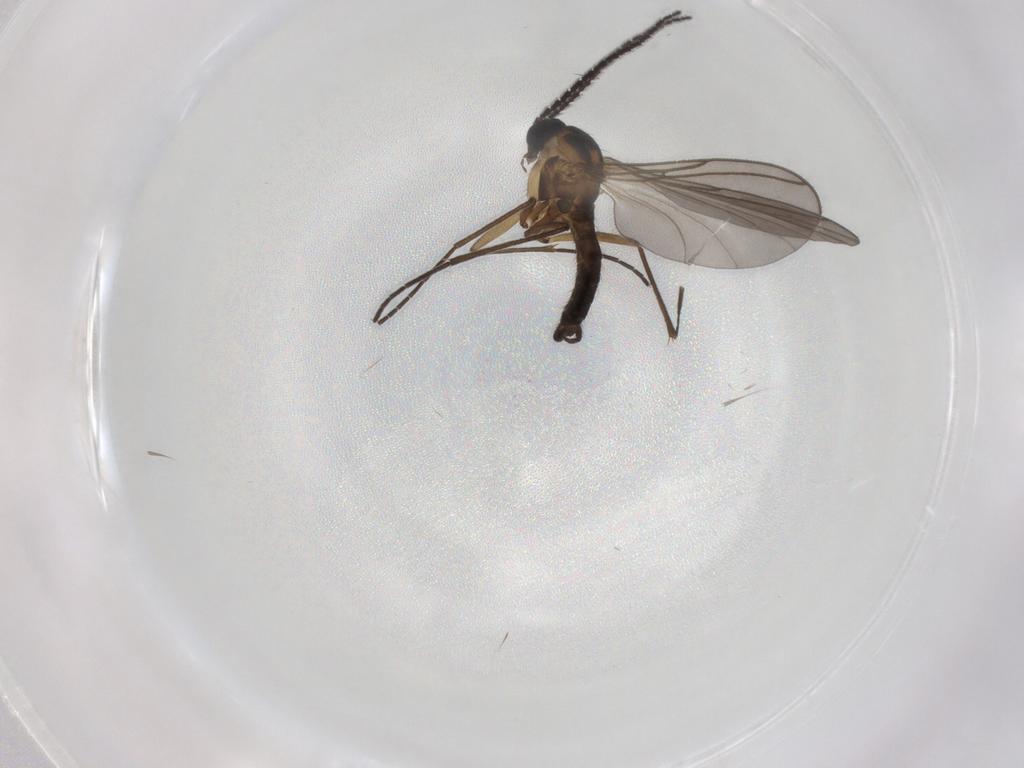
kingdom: Animalia
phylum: Arthropoda
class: Insecta
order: Diptera
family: Sciaridae
